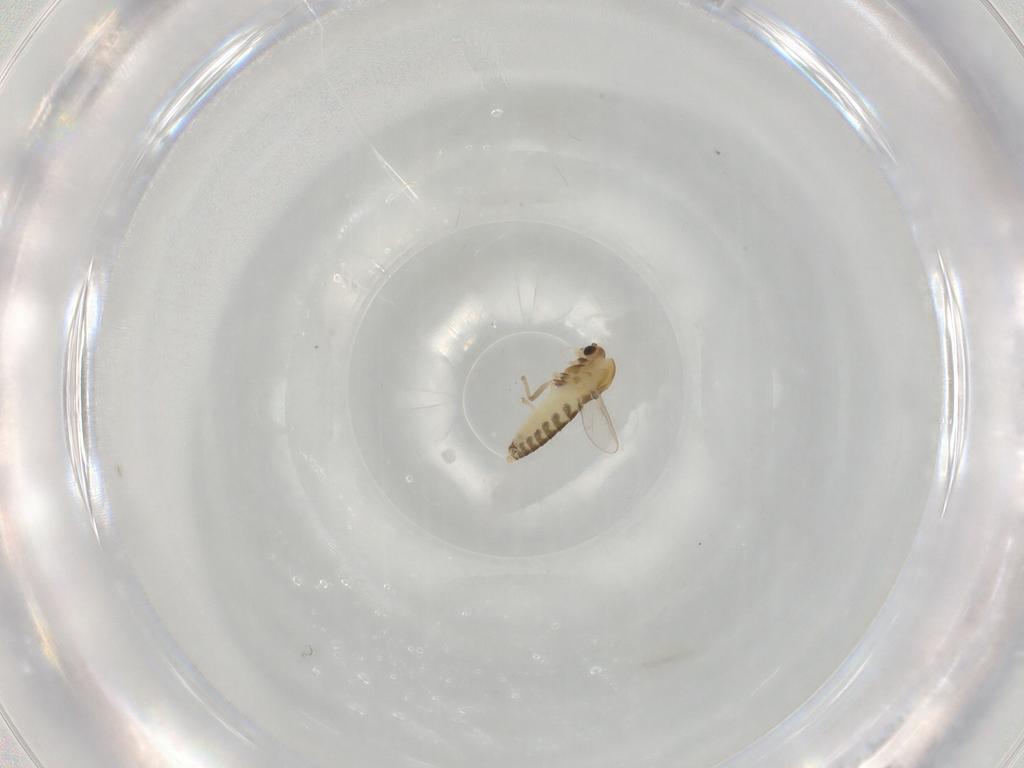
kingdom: Animalia
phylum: Arthropoda
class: Insecta
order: Diptera
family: Chironomidae
